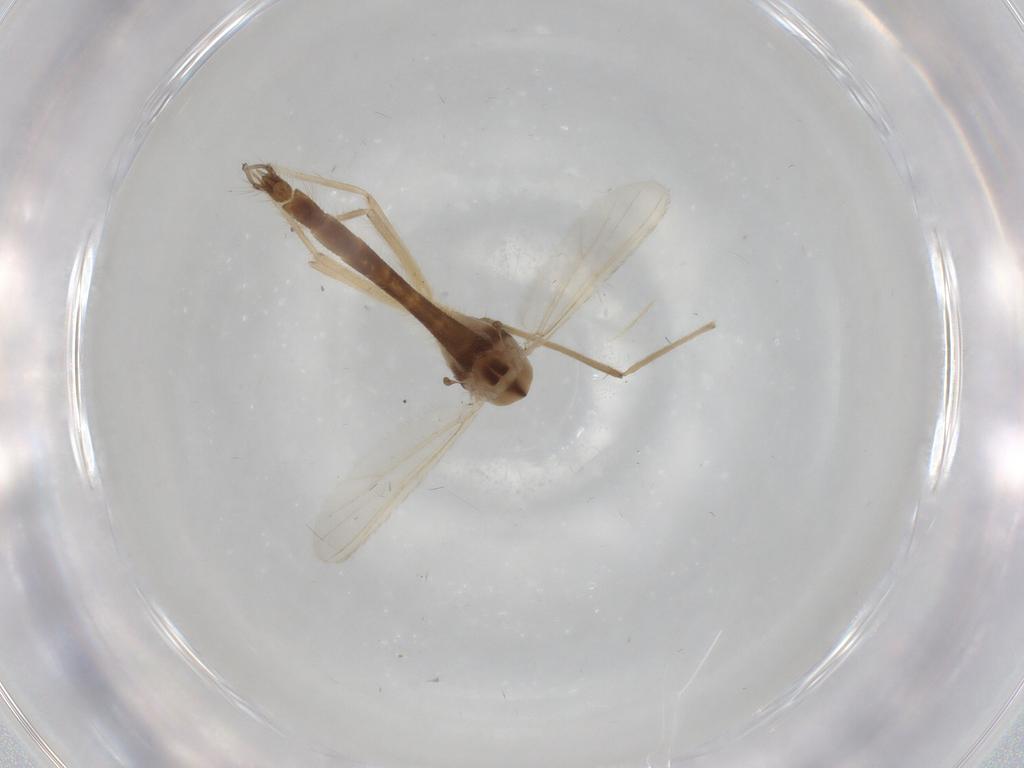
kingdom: Animalia
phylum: Arthropoda
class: Insecta
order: Diptera
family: Chironomidae
